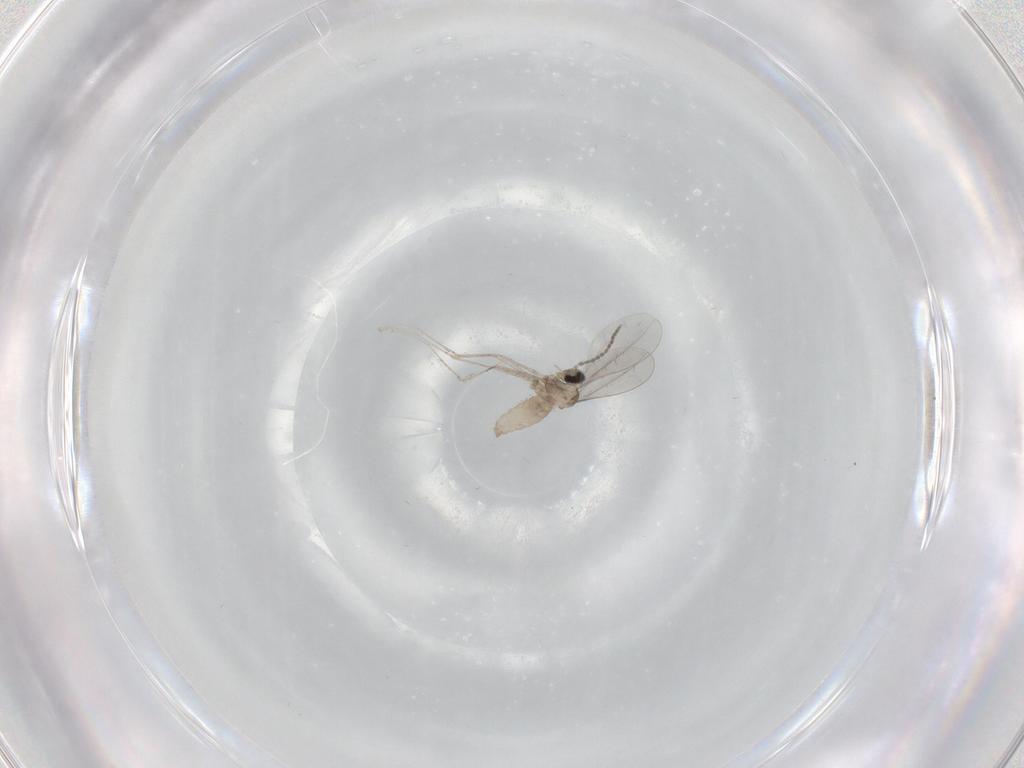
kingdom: Animalia
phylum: Arthropoda
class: Insecta
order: Diptera
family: Cecidomyiidae
